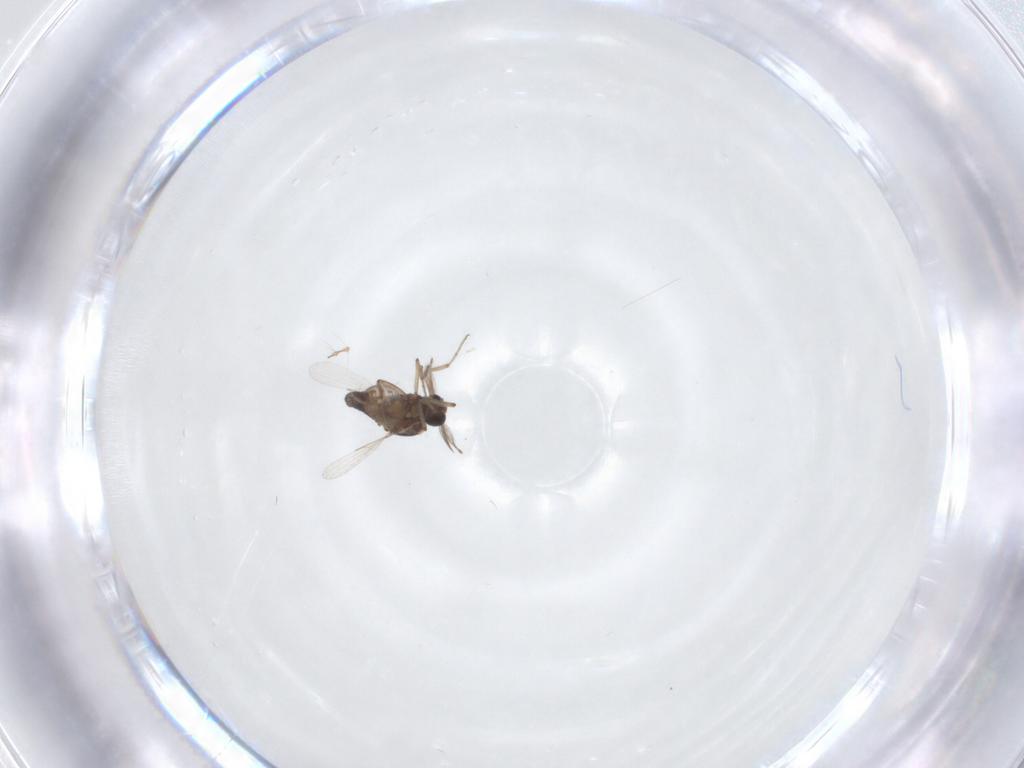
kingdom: Animalia
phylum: Arthropoda
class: Insecta
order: Diptera
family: Ceratopogonidae
